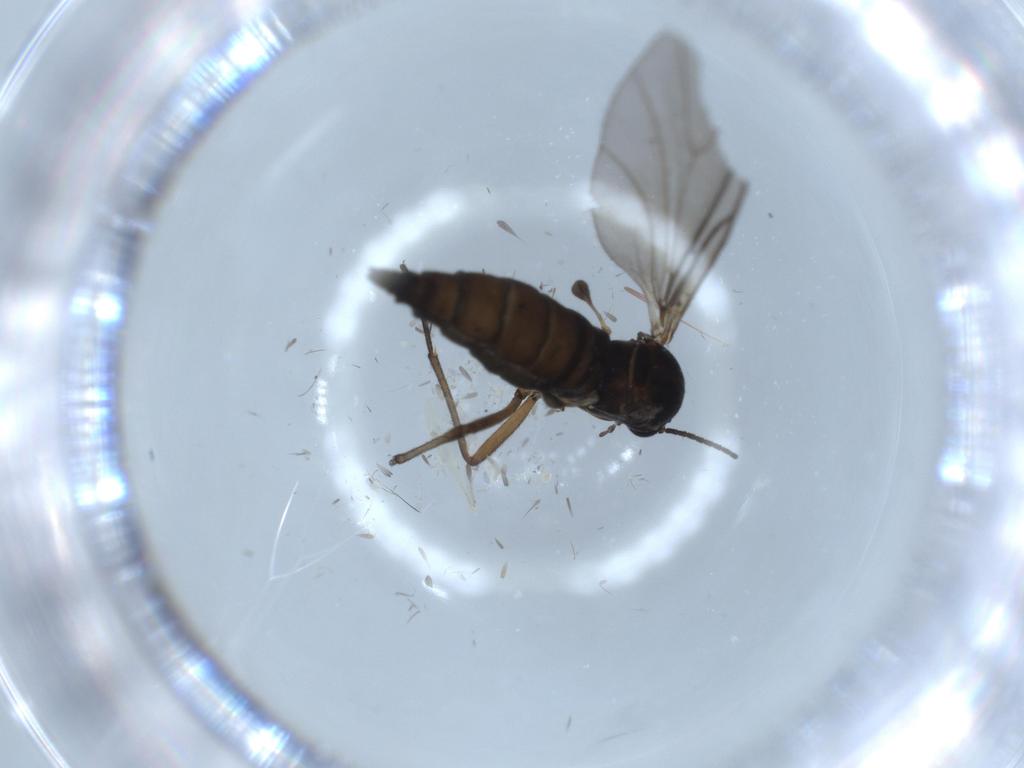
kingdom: Animalia
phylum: Arthropoda
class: Insecta
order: Diptera
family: Sciaridae
